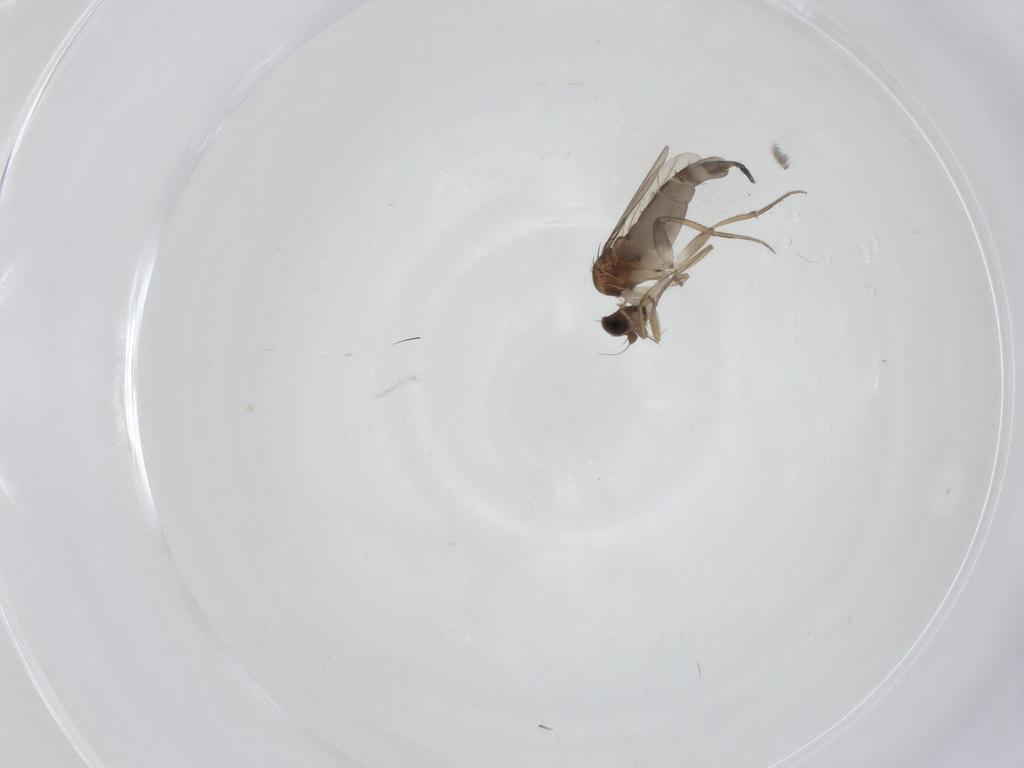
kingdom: Animalia
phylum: Arthropoda
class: Insecta
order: Diptera
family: Phoridae
